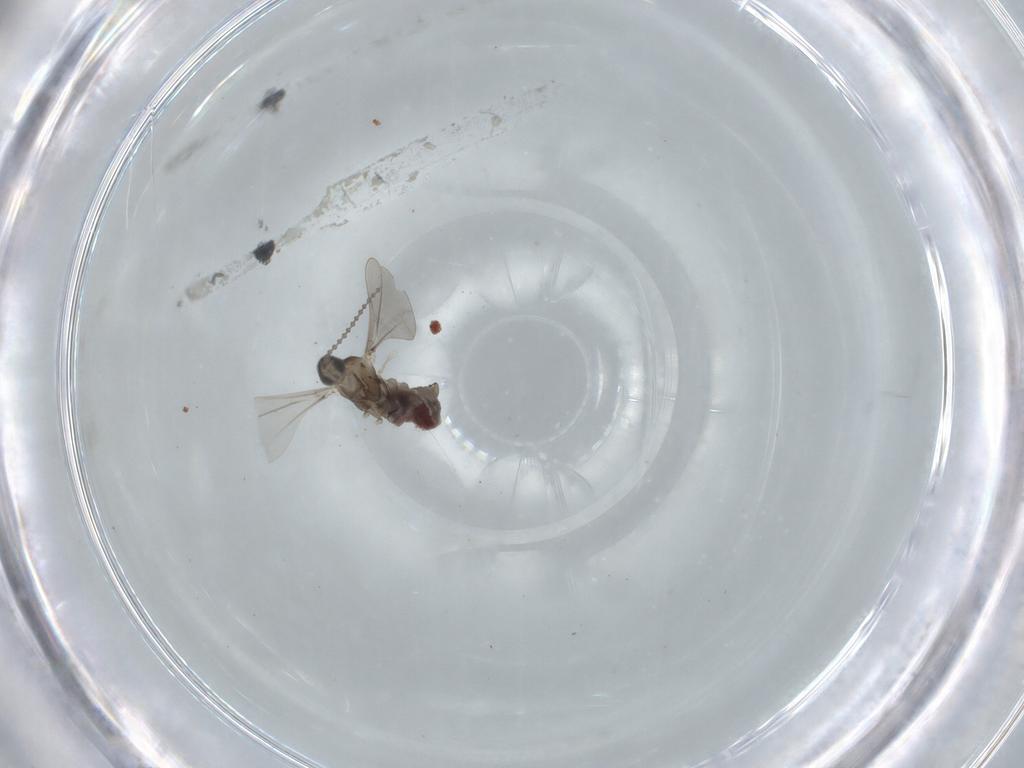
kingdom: Animalia
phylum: Arthropoda
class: Insecta
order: Diptera
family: Cecidomyiidae
